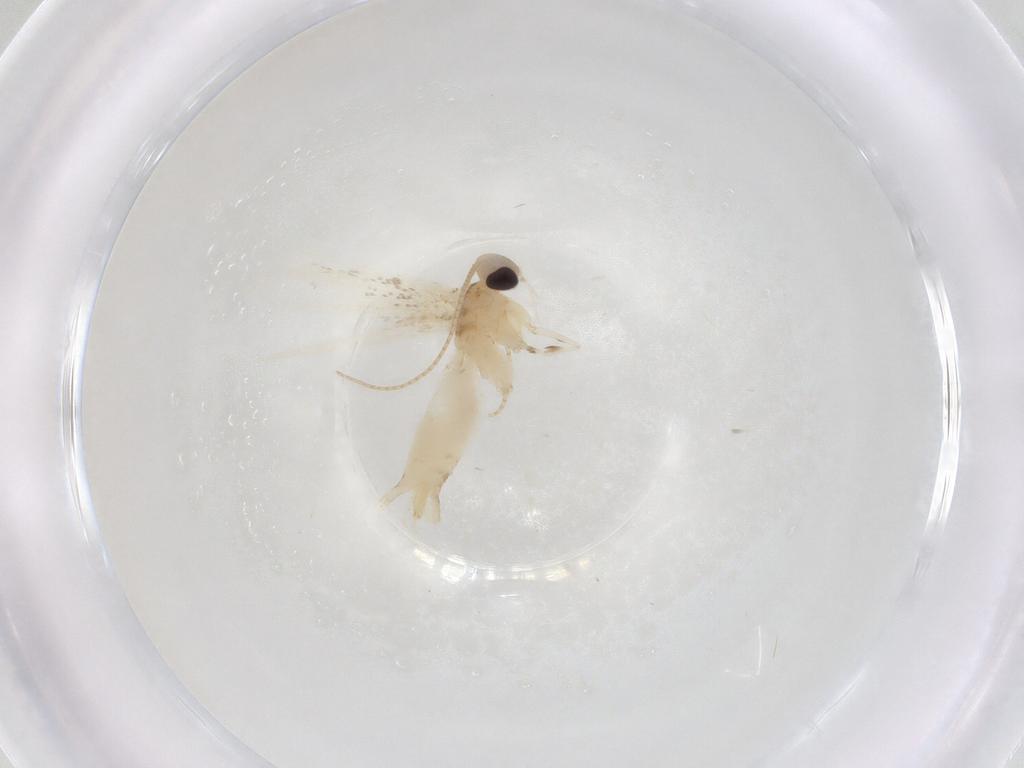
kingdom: Animalia
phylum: Arthropoda
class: Insecta
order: Lepidoptera
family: Gracillariidae
